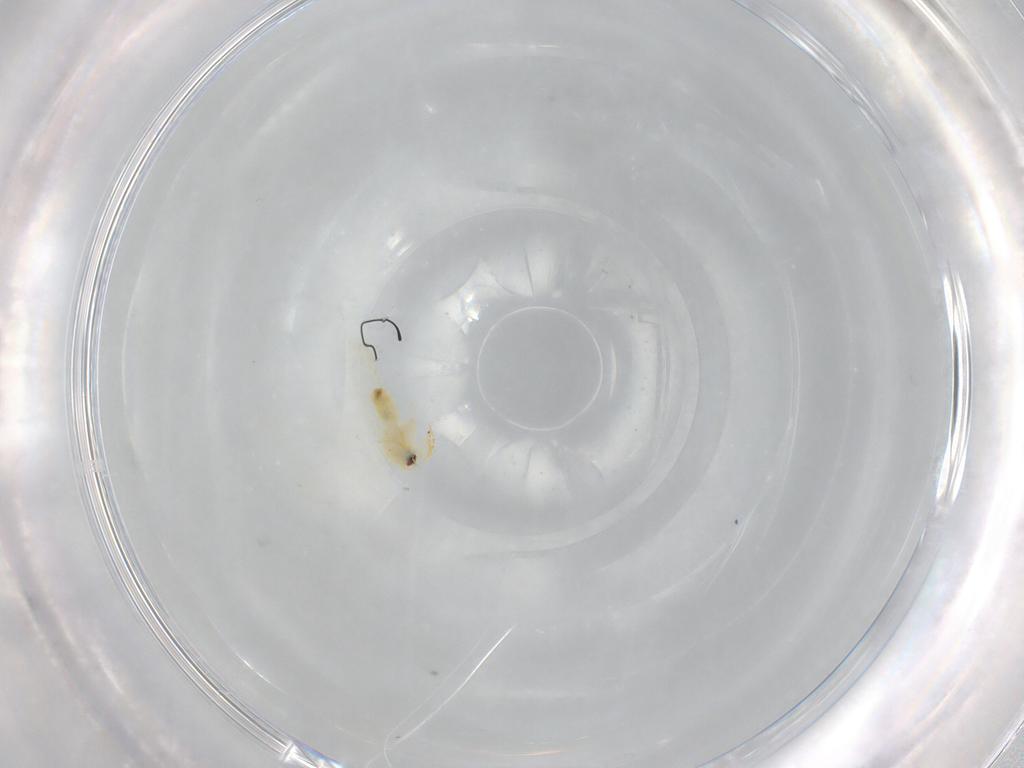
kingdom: Animalia
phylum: Arthropoda
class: Insecta
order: Hemiptera
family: Aleyrodidae
